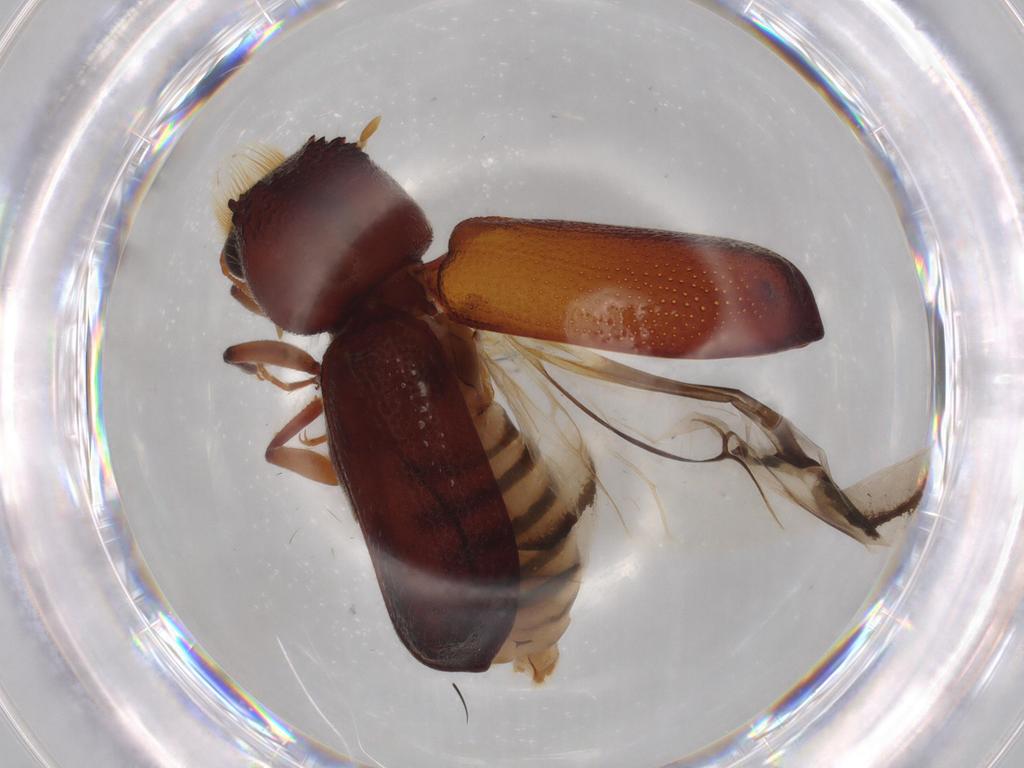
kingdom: Animalia
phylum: Arthropoda
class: Insecta
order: Coleoptera
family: Bostrichidae
